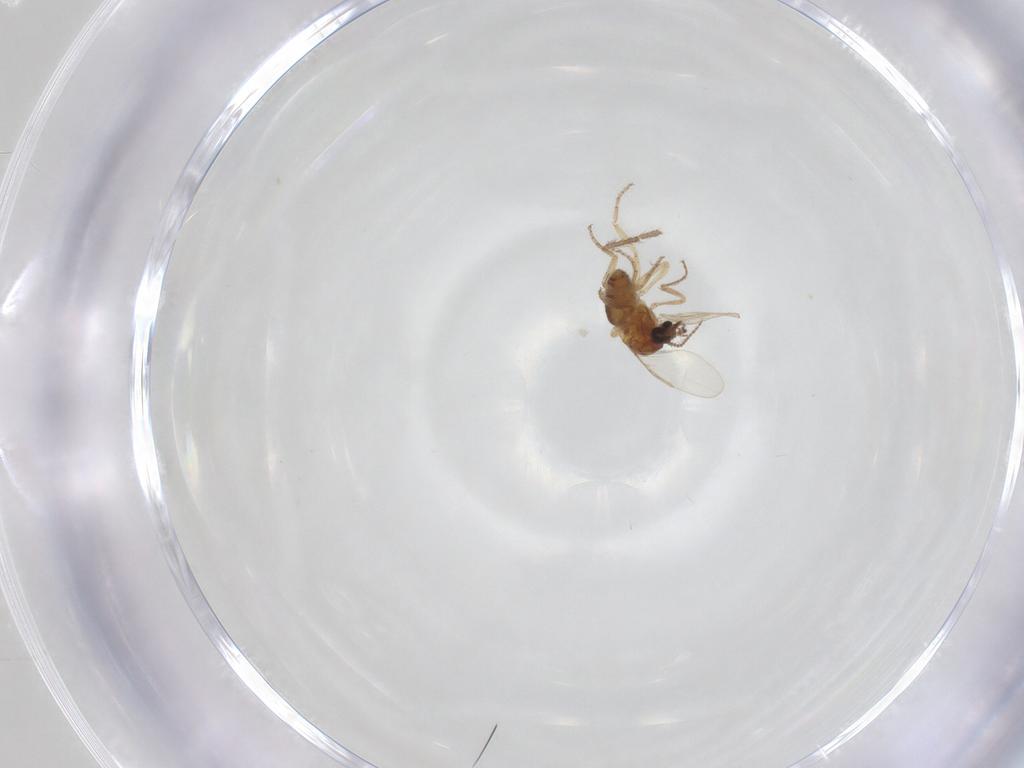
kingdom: Animalia
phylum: Arthropoda
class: Insecta
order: Diptera
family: Ceratopogonidae
